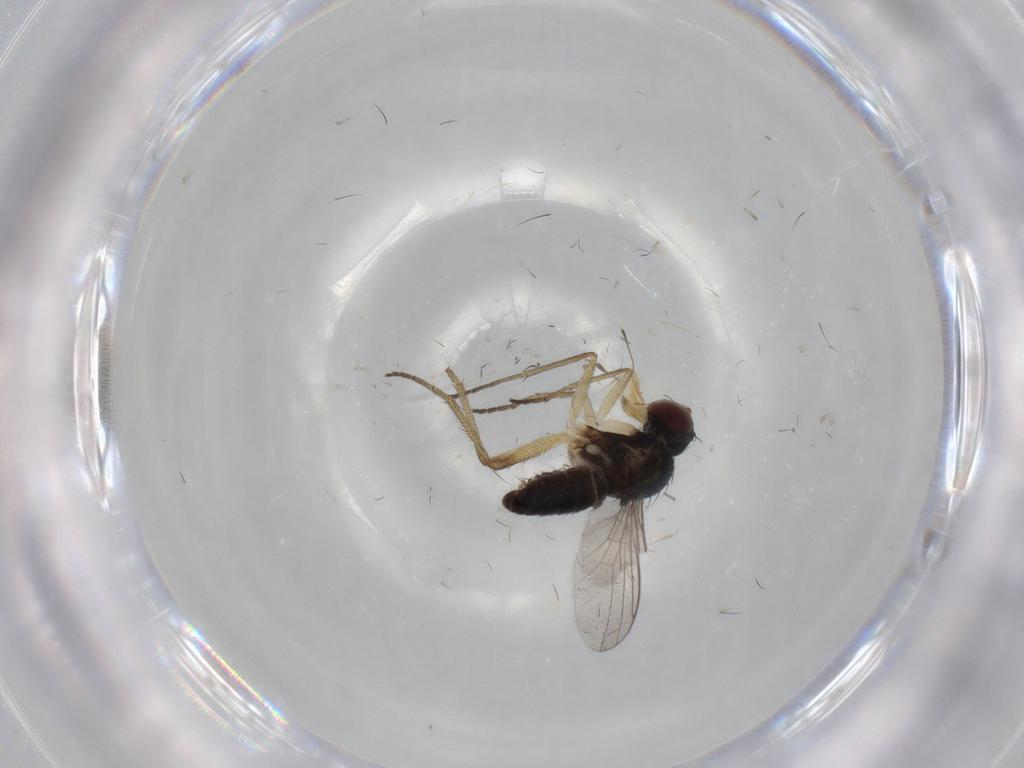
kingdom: Animalia
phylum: Arthropoda
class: Insecta
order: Diptera
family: Dolichopodidae
